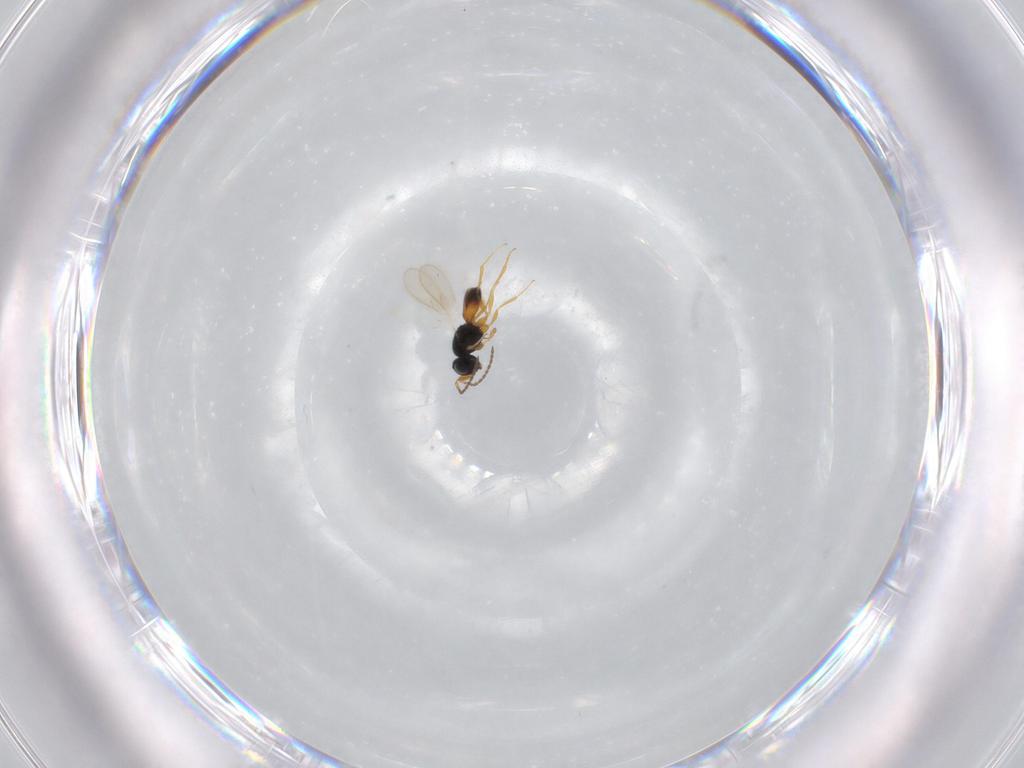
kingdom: Animalia
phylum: Arthropoda
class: Insecta
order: Hymenoptera
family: Scelionidae
